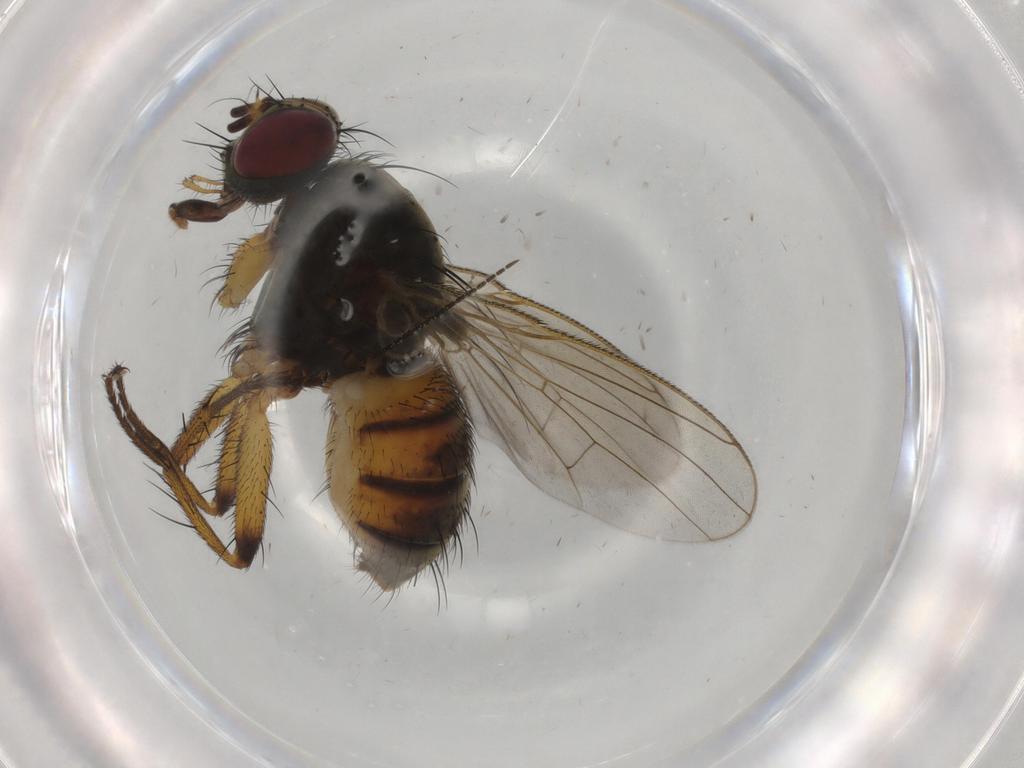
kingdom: Animalia
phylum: Arthropoda
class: Insecta
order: Diptera
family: Muscidae
